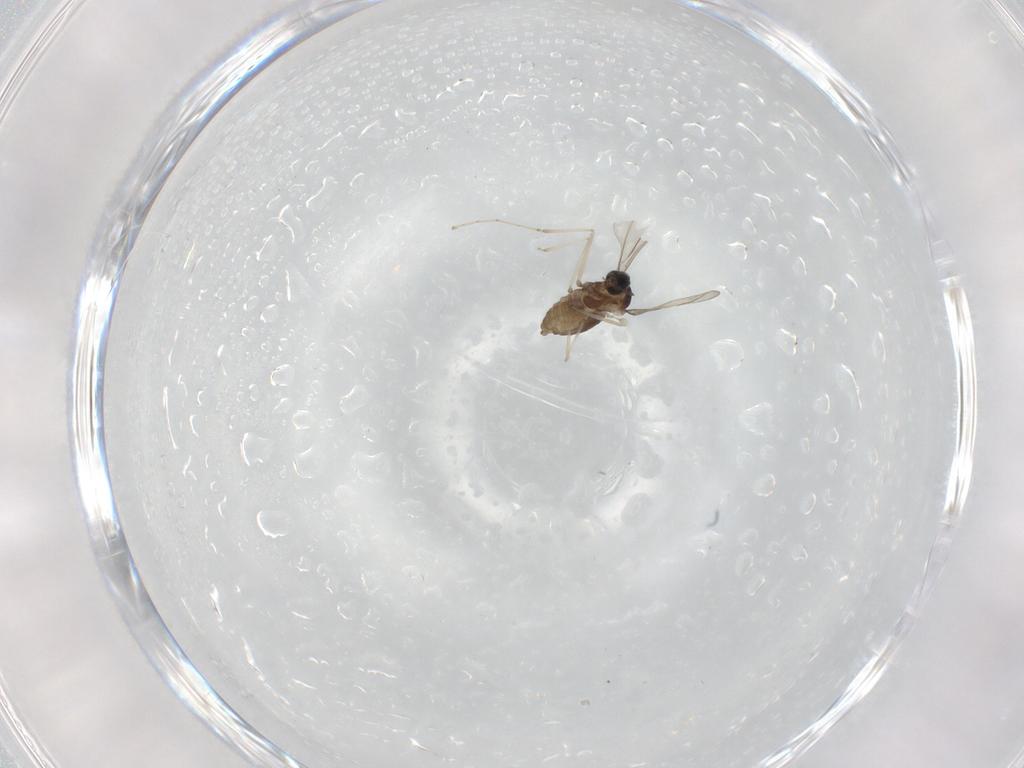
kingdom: Animalia
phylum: Arthropoda
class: Insecta
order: Diptera
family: Cecidomyiidae
